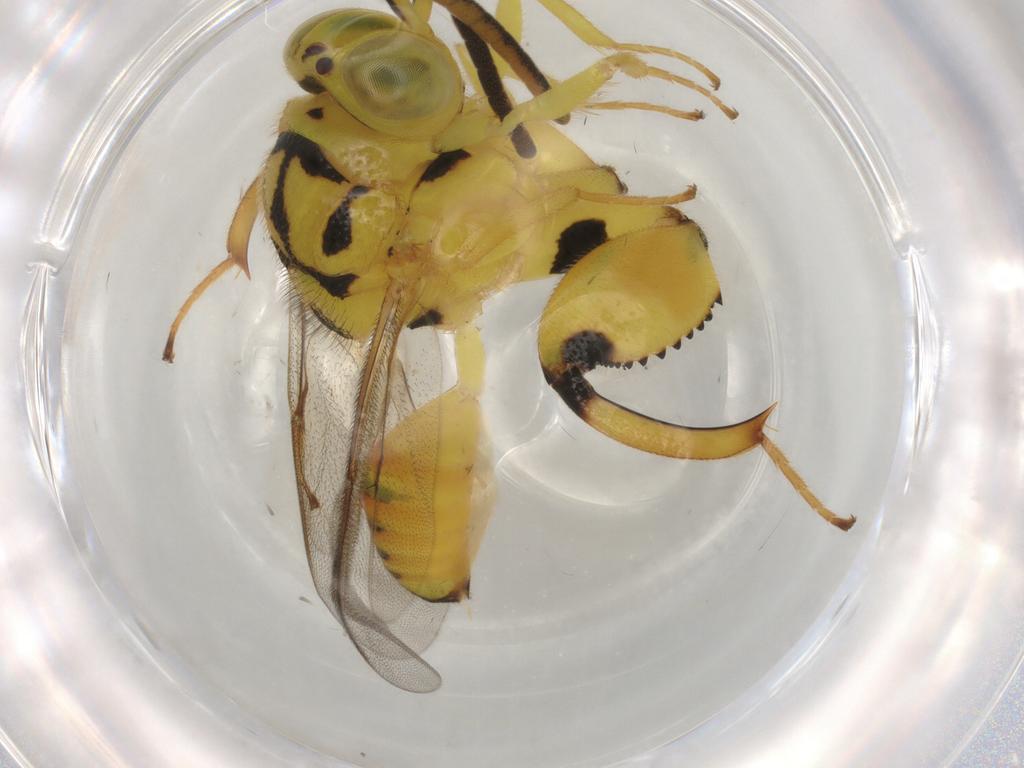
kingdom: Animalia
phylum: Arthropoda
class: Insecta
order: Hymenoptera
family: Chalcididae
